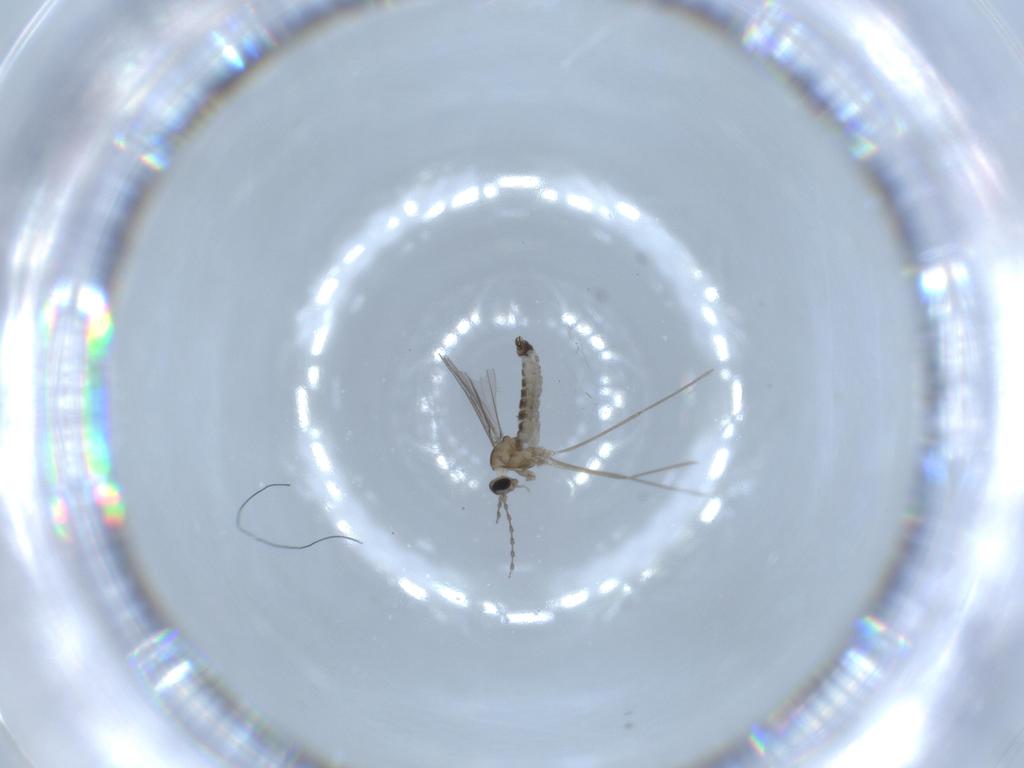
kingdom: Animalia
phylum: Arthropoda
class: Insecta
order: Diptera
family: Cecidomyiidae
